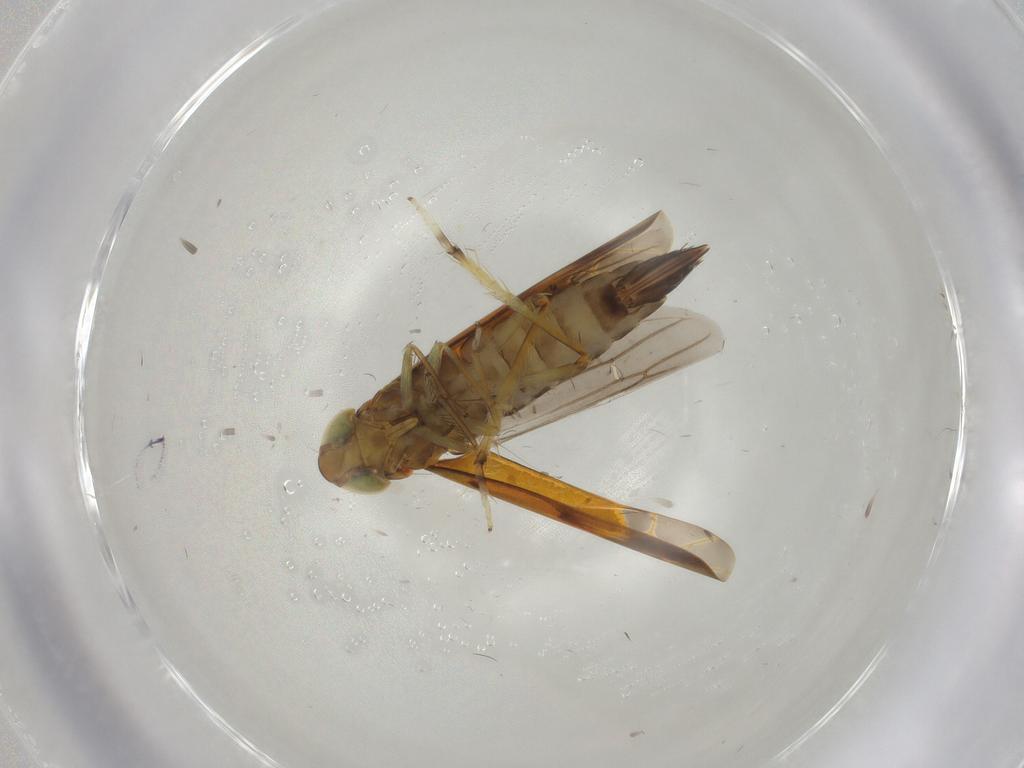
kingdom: Animalia
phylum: Arthropoda
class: Insecta
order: Hemiptera
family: Cicadellidae
